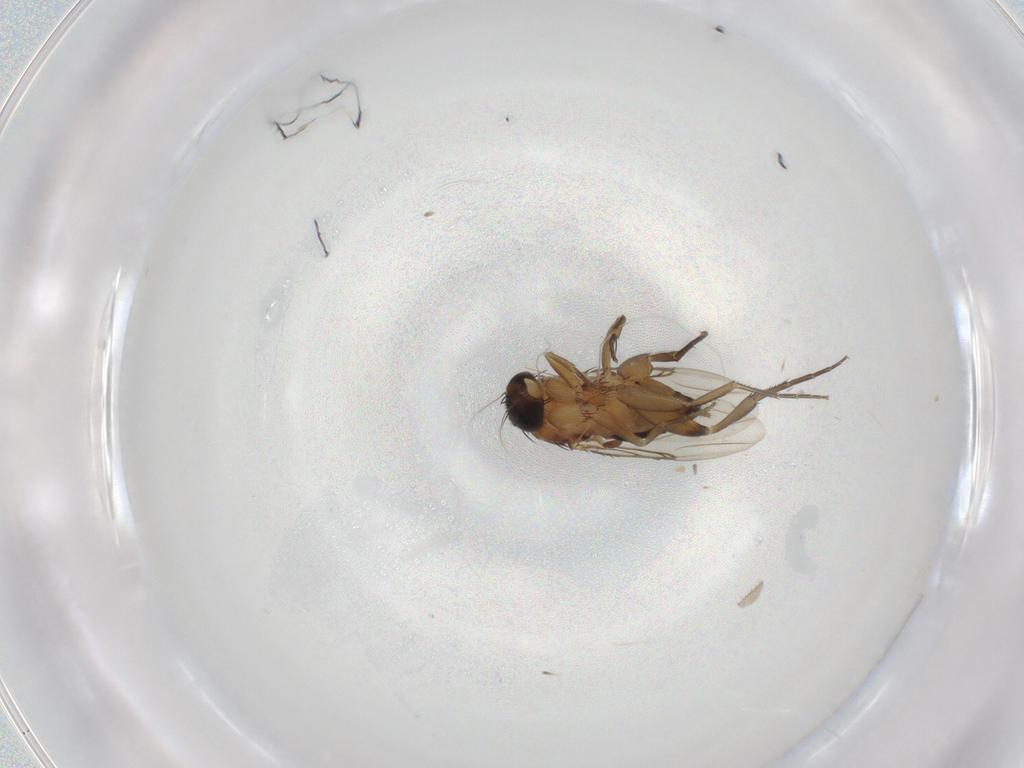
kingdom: Animalia
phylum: Arthropoda
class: Insecta
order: Diptera
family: Phoridae
